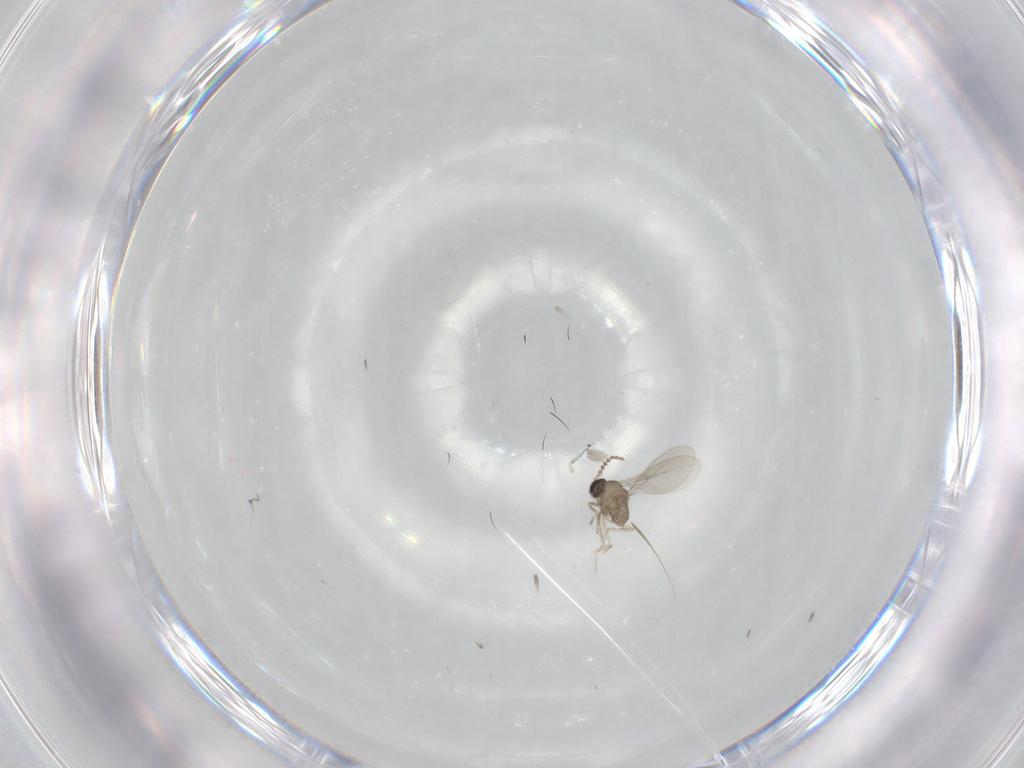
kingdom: Animalia
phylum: Arthropoda
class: Insecta
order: Diptera
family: Cecidomyiidae
